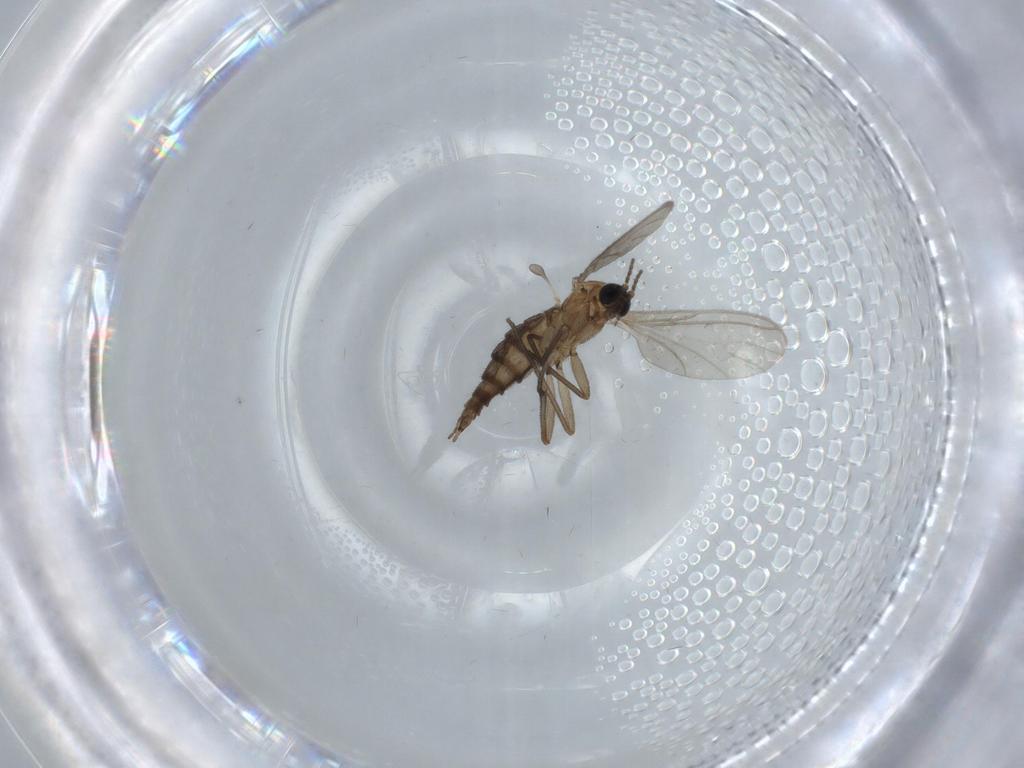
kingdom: Animalia
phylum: Arthropoda
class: Insecta
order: Diptera
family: Sciaridae
